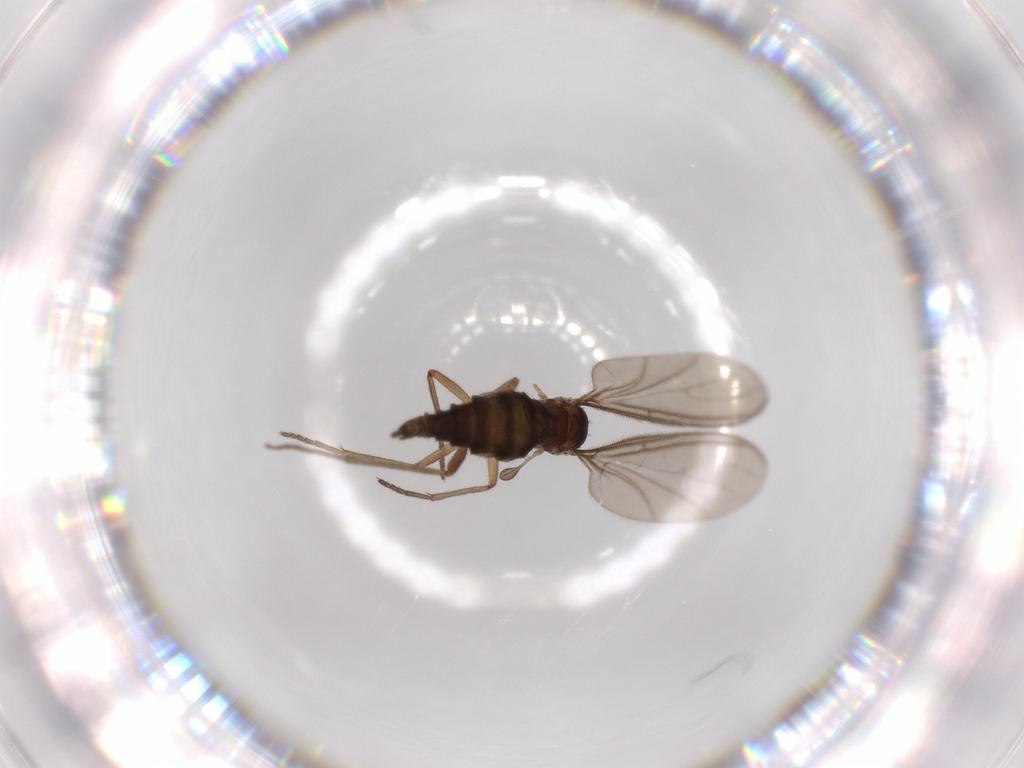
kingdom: Animalia
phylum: Arthropoda
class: Insecta
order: Diptera
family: Sciaridae
